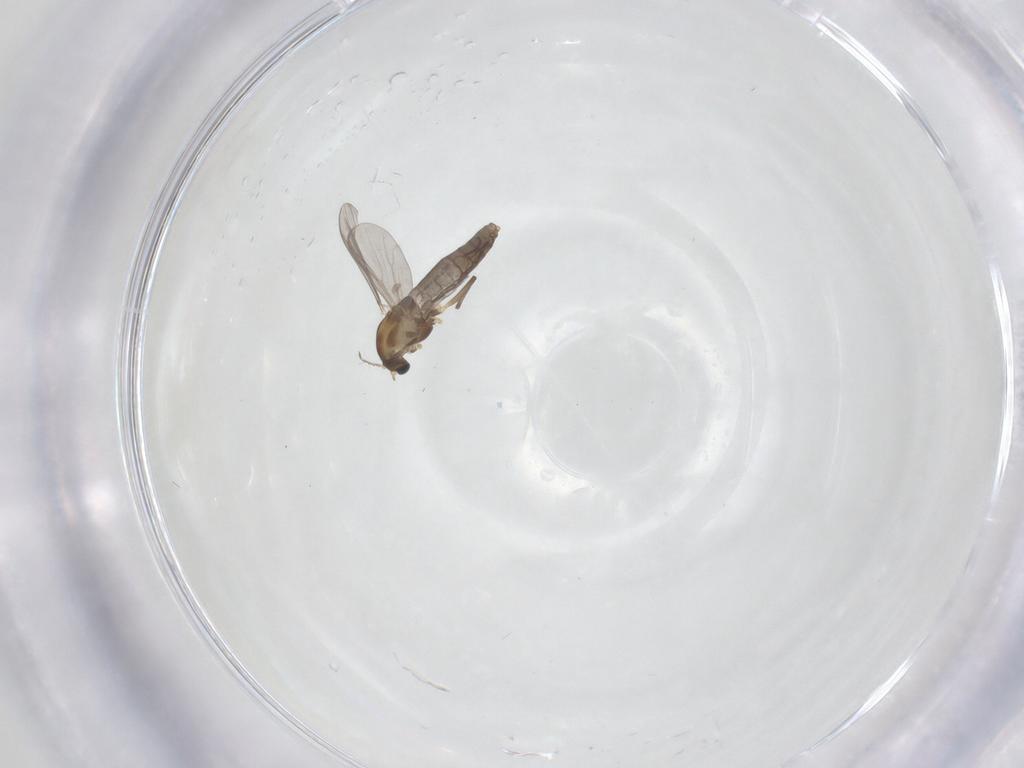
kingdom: Animalia
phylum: Arthropoda
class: Insecta
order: Diptera
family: Chironomidae
